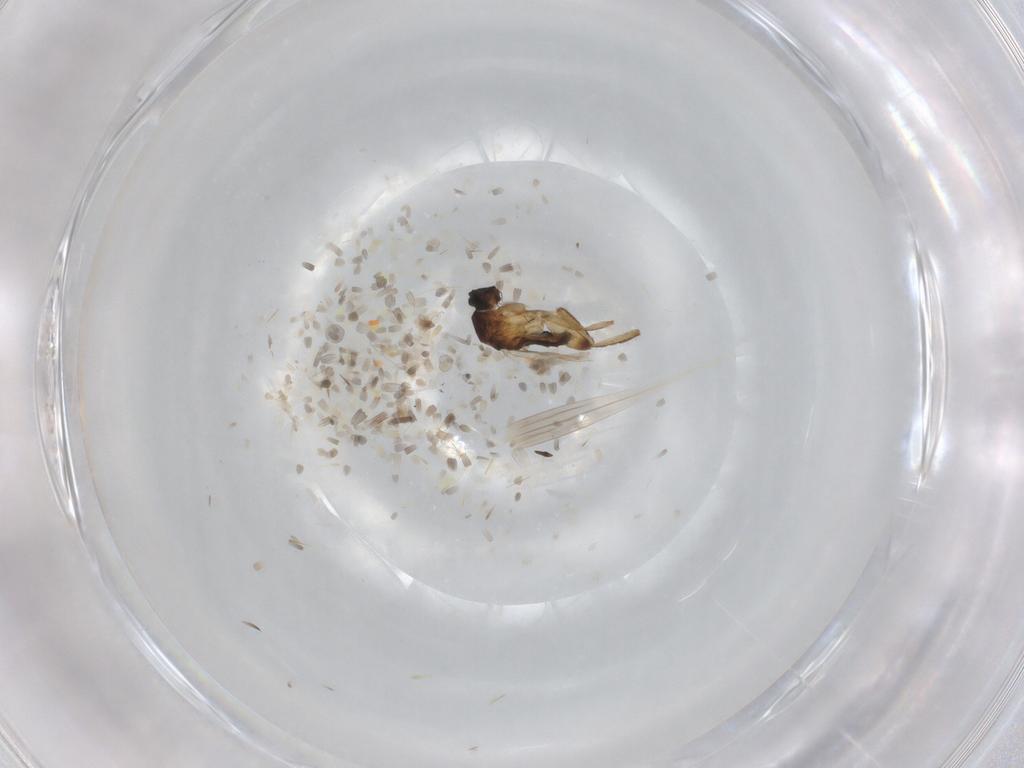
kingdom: Animalia
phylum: Arthropoda
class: Insecta
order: Diptera
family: Phoridae
